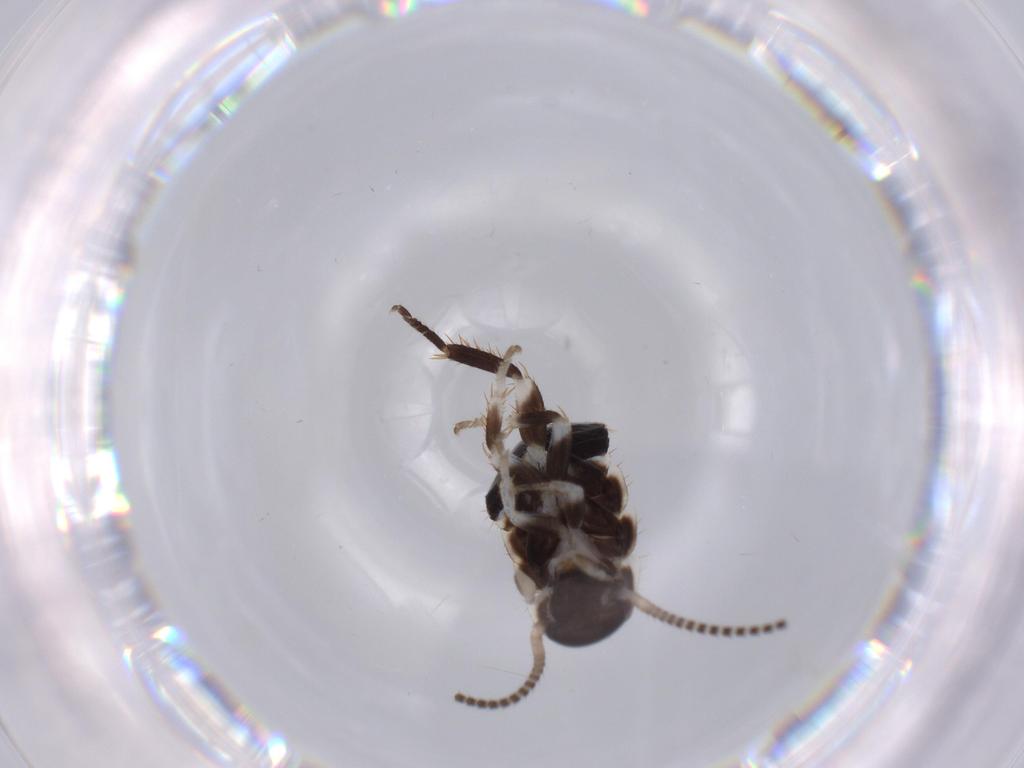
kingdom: Animalia
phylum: Arthropoda
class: Insecta
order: Blattodea
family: Ectobiidae
